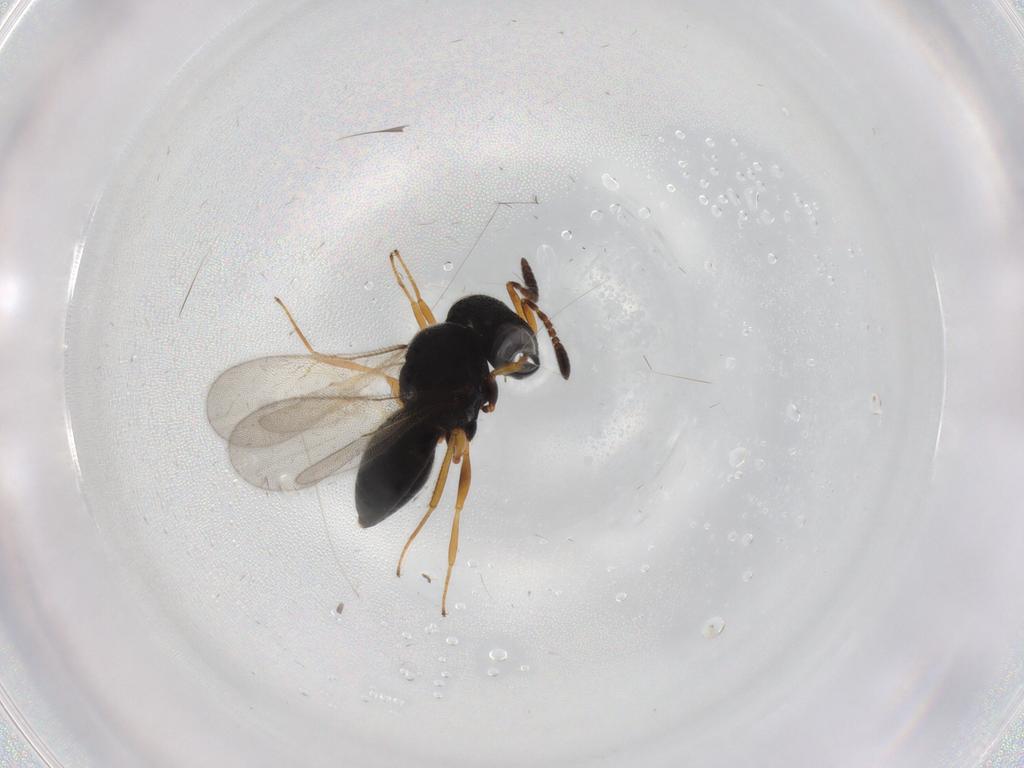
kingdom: Animalia
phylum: Arthropoda
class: Insecta
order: Hymenoptera
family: Scelionidae
